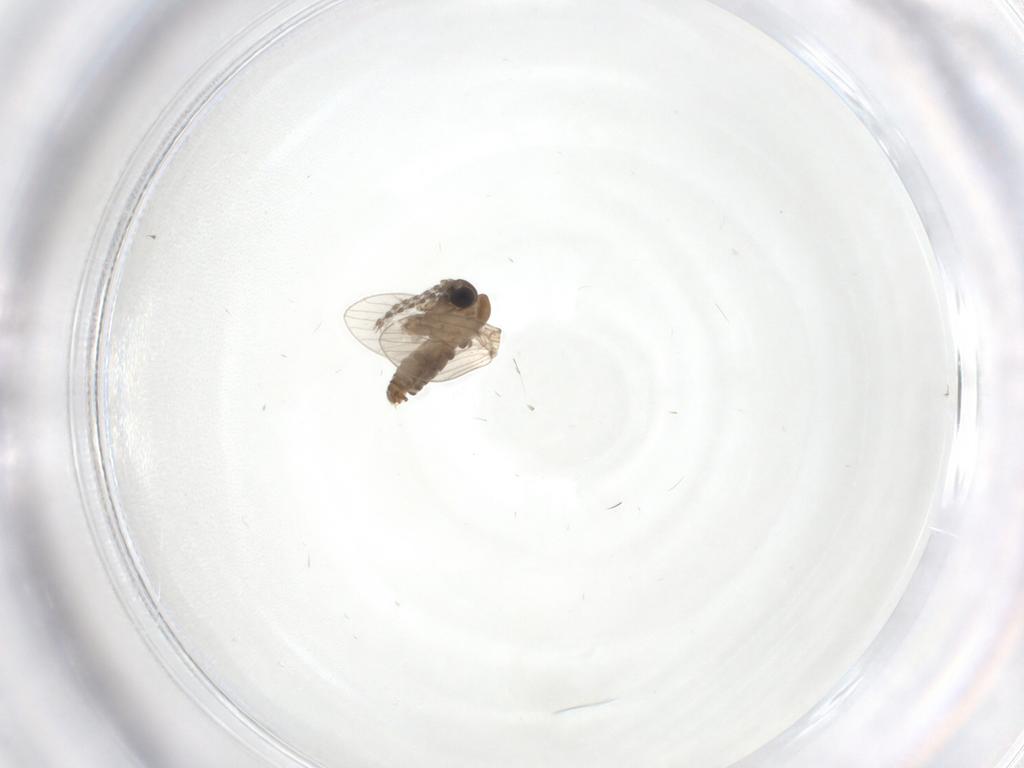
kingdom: Animalia
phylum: Arthropoda
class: Insecta
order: Diptera
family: Psychodidae
